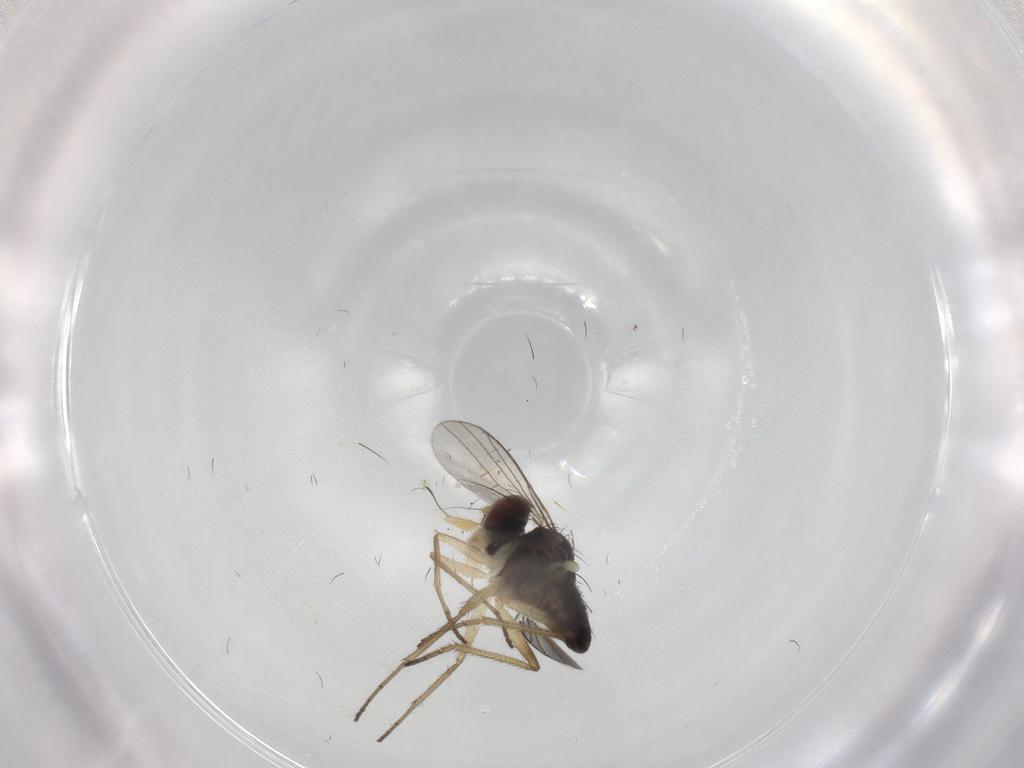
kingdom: Animalia
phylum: Arthropoda
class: Insecta
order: Diptera
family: Dolichopodidae
